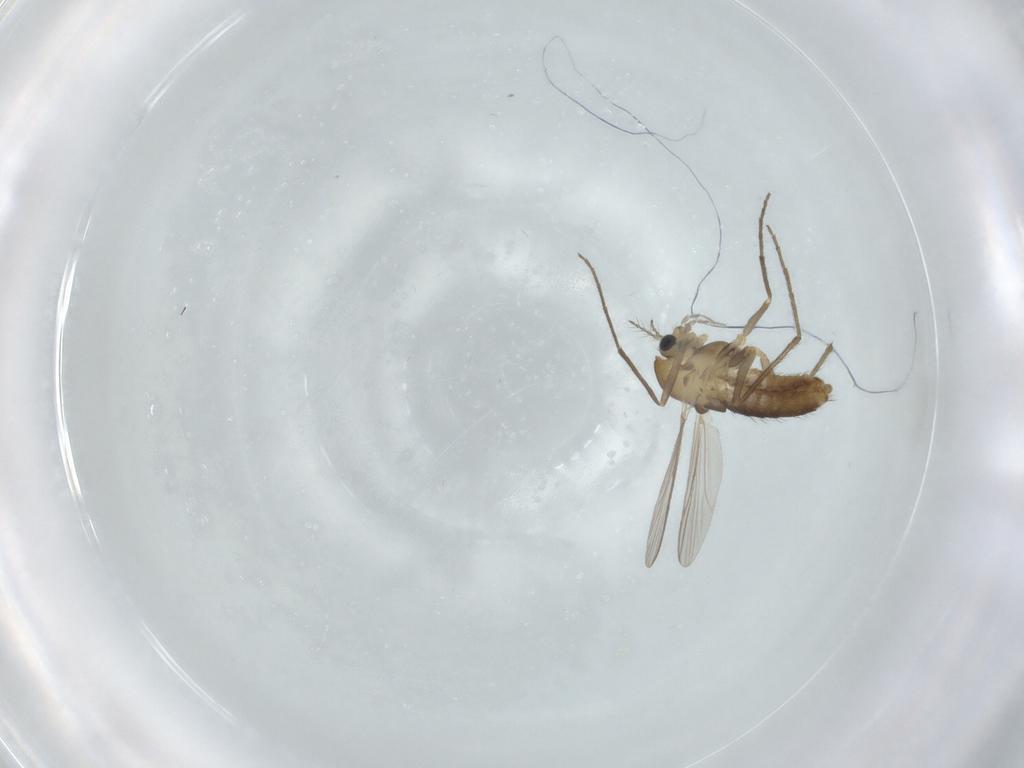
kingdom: Animalia
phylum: Arthropoda
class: Insecta
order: Diptera
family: Chironomidae
